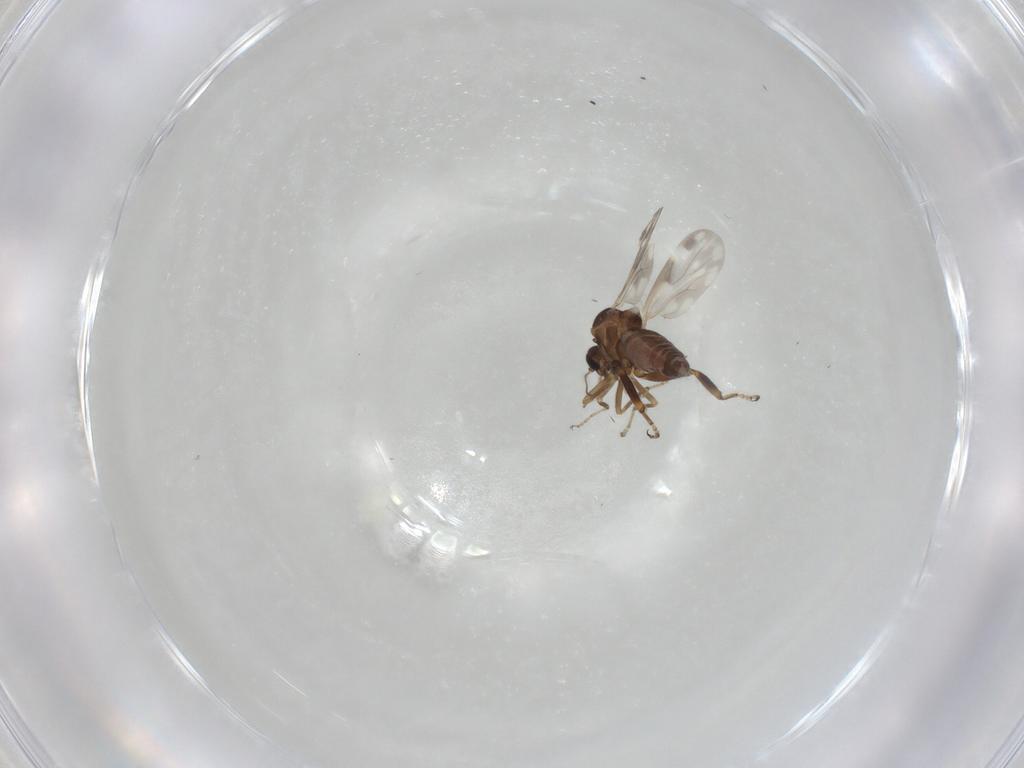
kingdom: Animalia
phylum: Arthropoda
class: Insecta
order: Diptera
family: Ceratopogonidae
